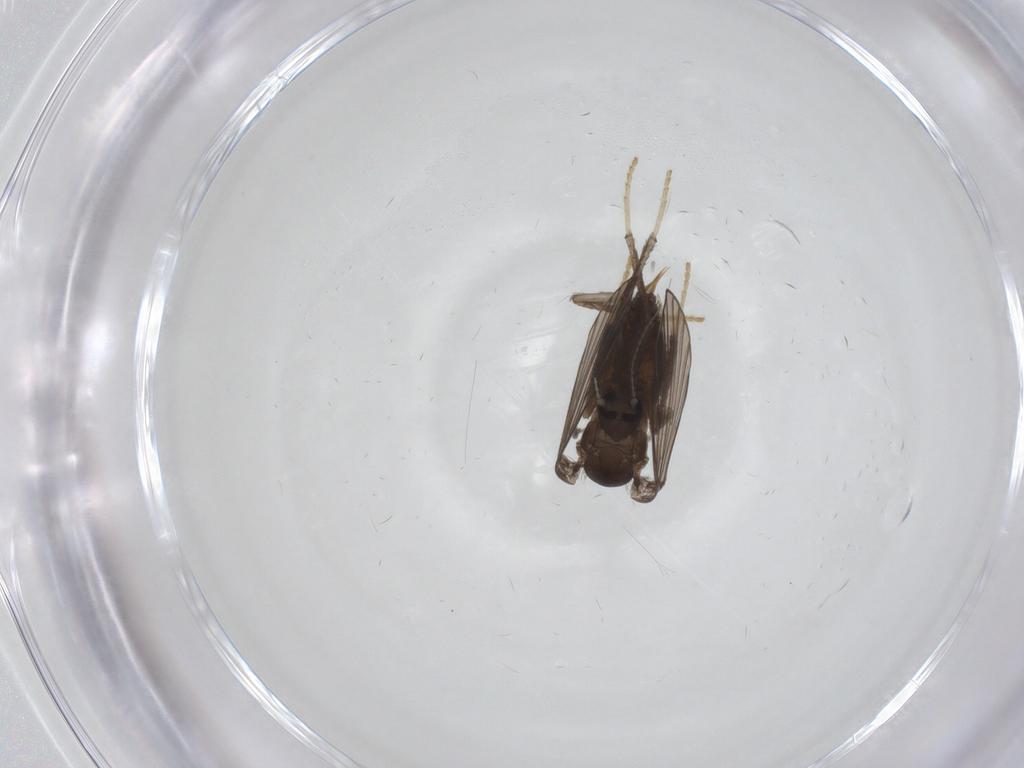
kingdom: Animalia
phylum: Arthropoda
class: Insecta
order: Diptera
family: Psychodidae
